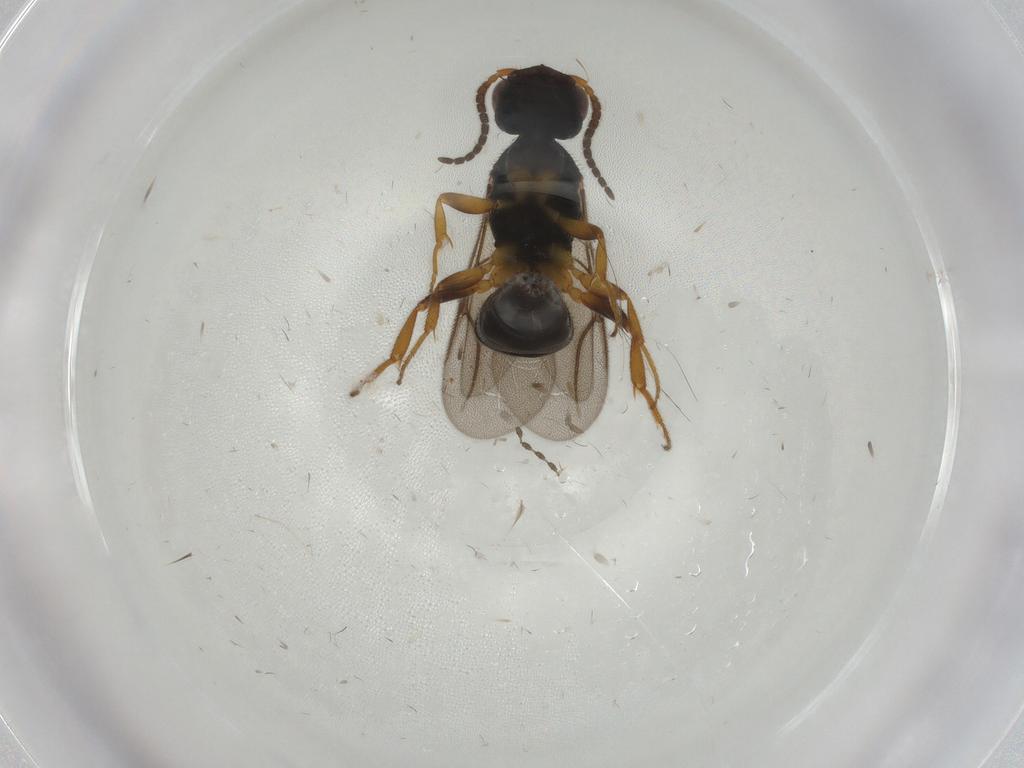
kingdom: Animalia
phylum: Arthropoda
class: Insecta
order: Hymenoptera
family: Bethylidae
